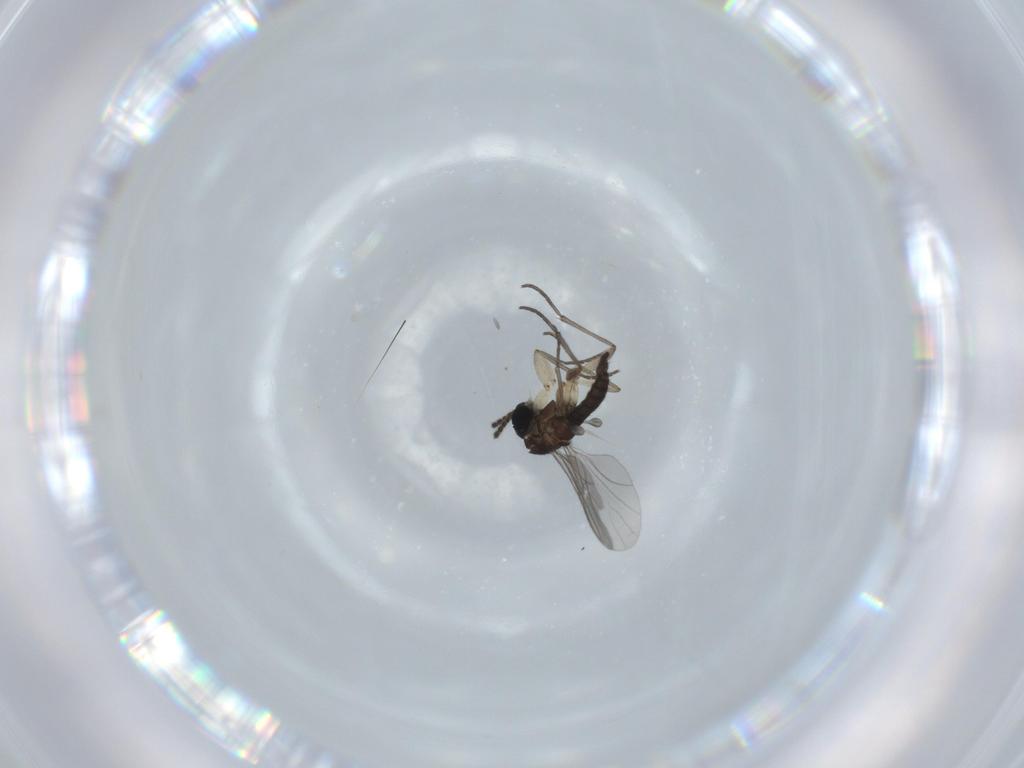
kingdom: Animalia
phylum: Arthropoda
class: Insecta
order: Diptera
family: Sciaridae
